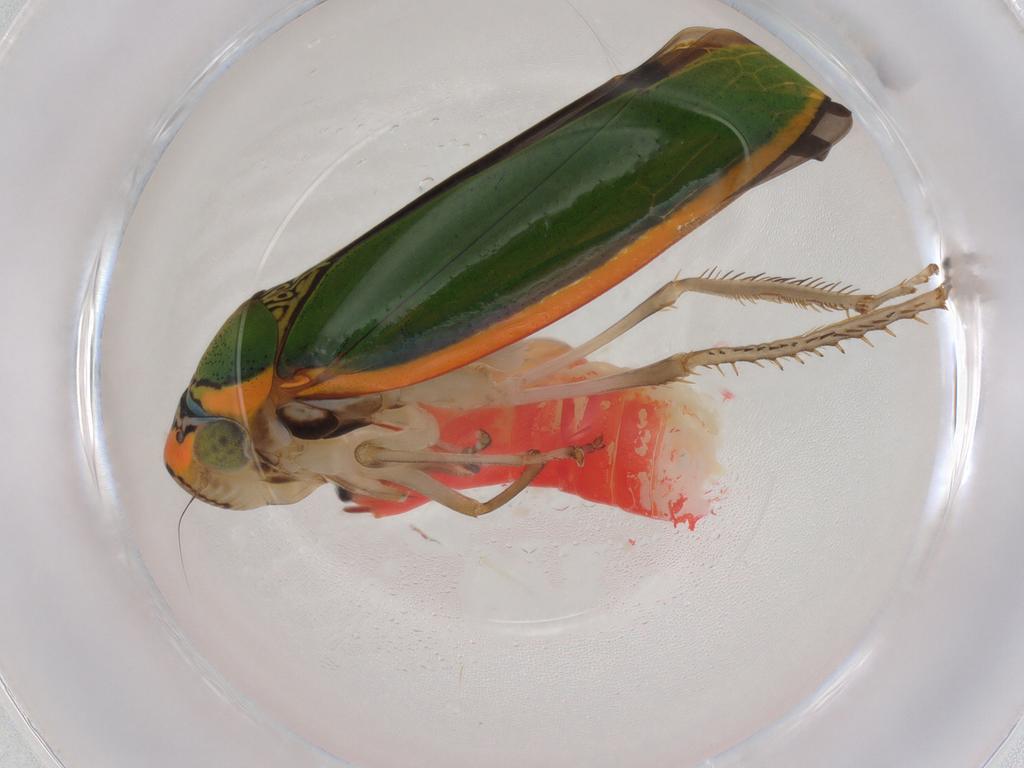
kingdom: Animalia
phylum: Arthropoda
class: Insecta
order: Hemiptera
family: Cicadellidae
